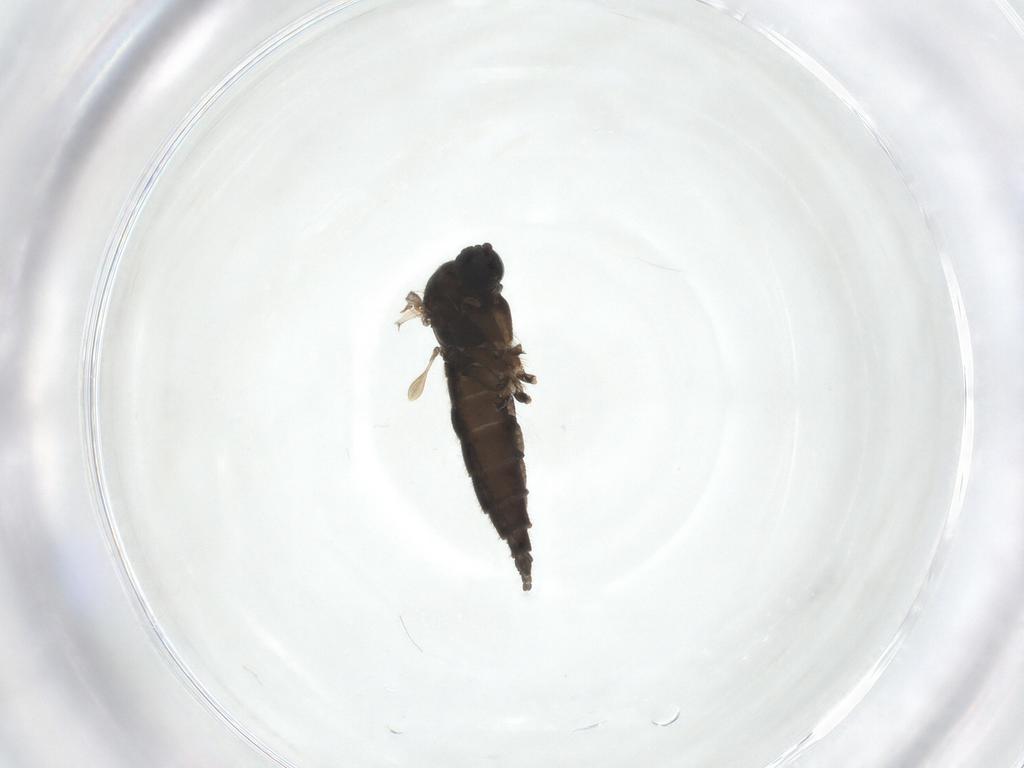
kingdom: Animalia
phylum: Arthropoda
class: Insecta
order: Diptera
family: Sciaridae
